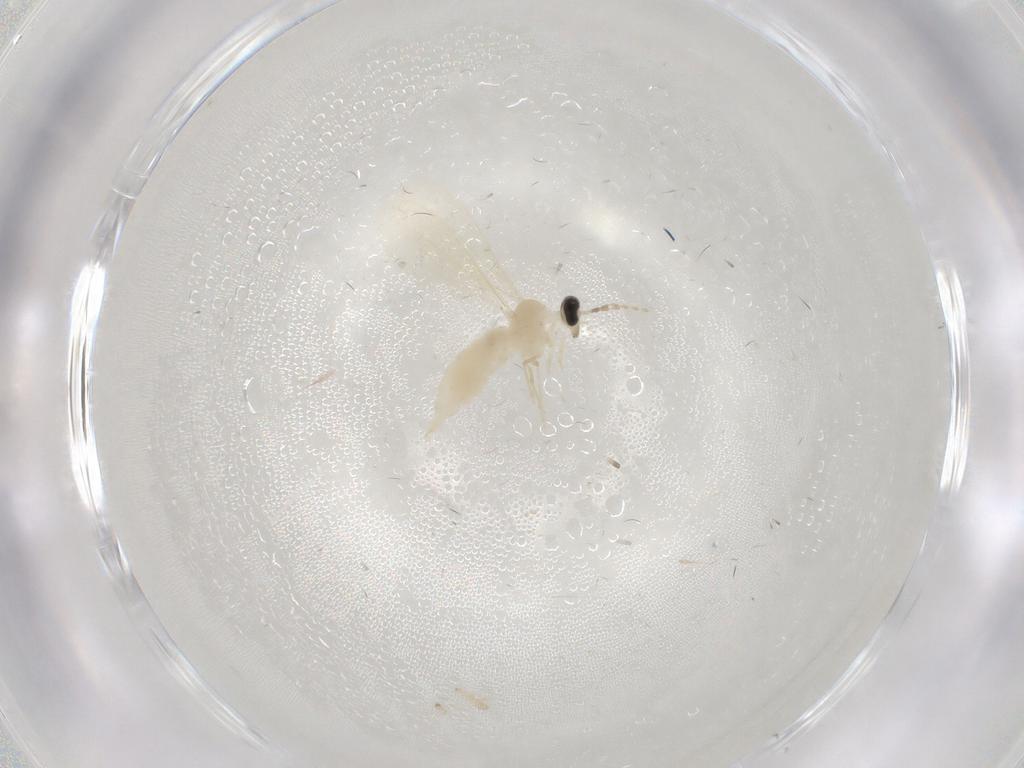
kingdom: Animalia
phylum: Arthropoda
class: Insecta
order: Diptera
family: Cecidomyiidae
